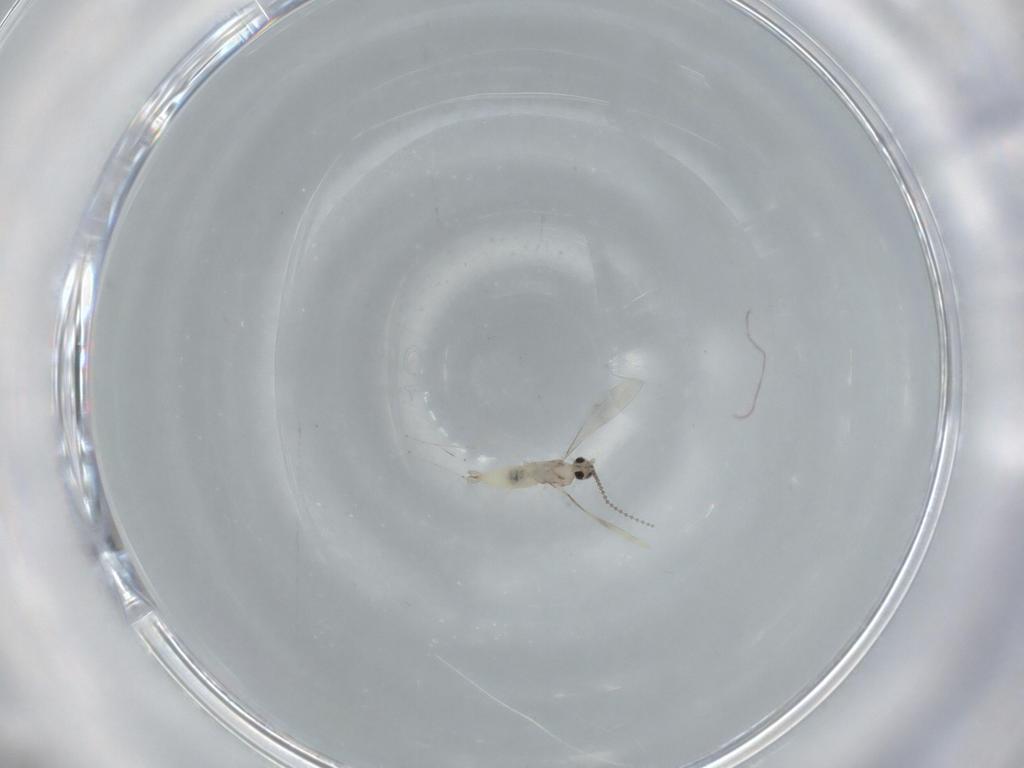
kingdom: Animalia
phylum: Arthropoda
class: Insecta
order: Diptera
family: Cecidomyiidae
